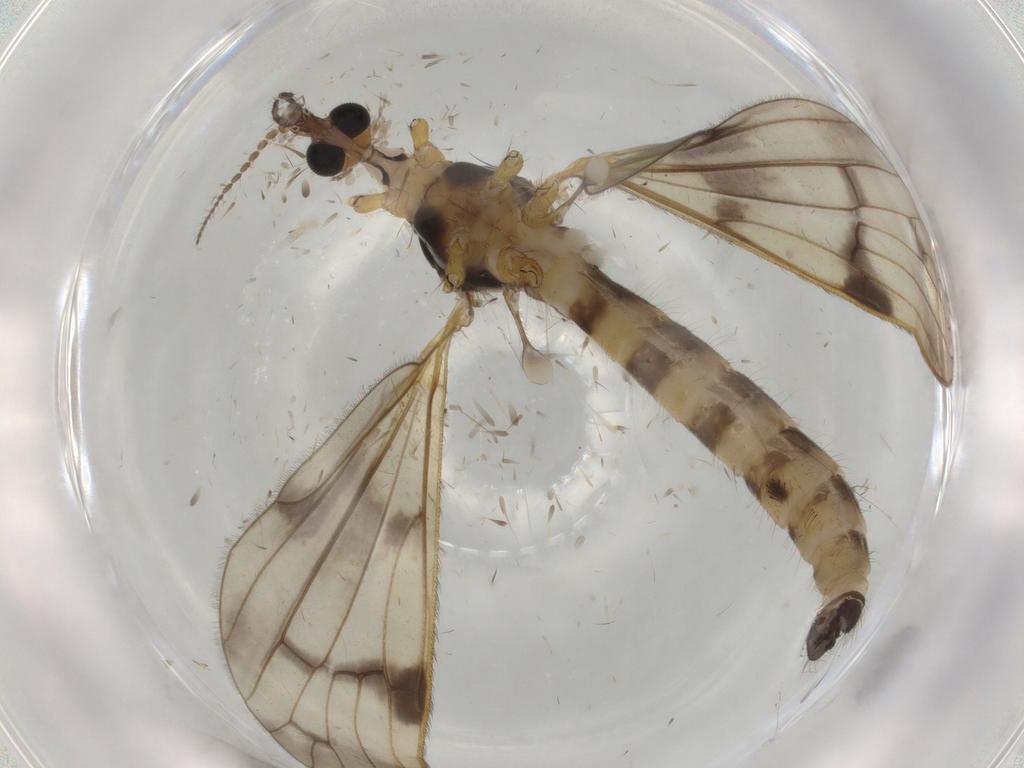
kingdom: Animalia
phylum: Arthropoda
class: Insecta
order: Diptera
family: Limoniidae
